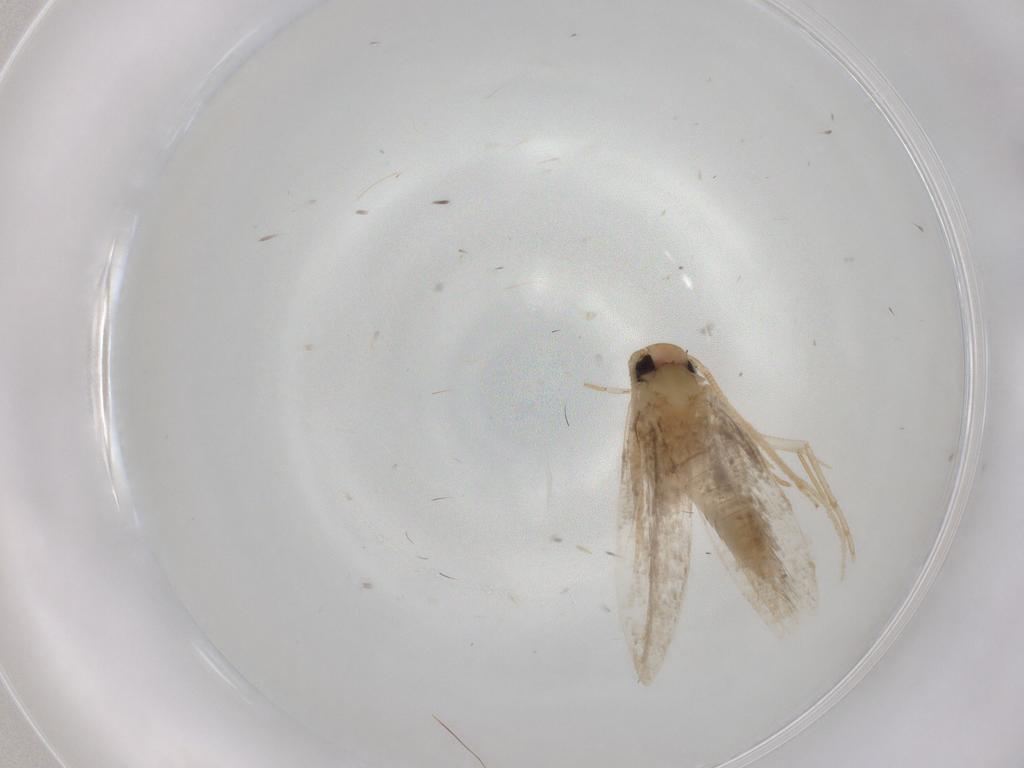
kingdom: Animalia
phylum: Arthropoda
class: Insecta
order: Lepidoptera
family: Cosmopterigidae
